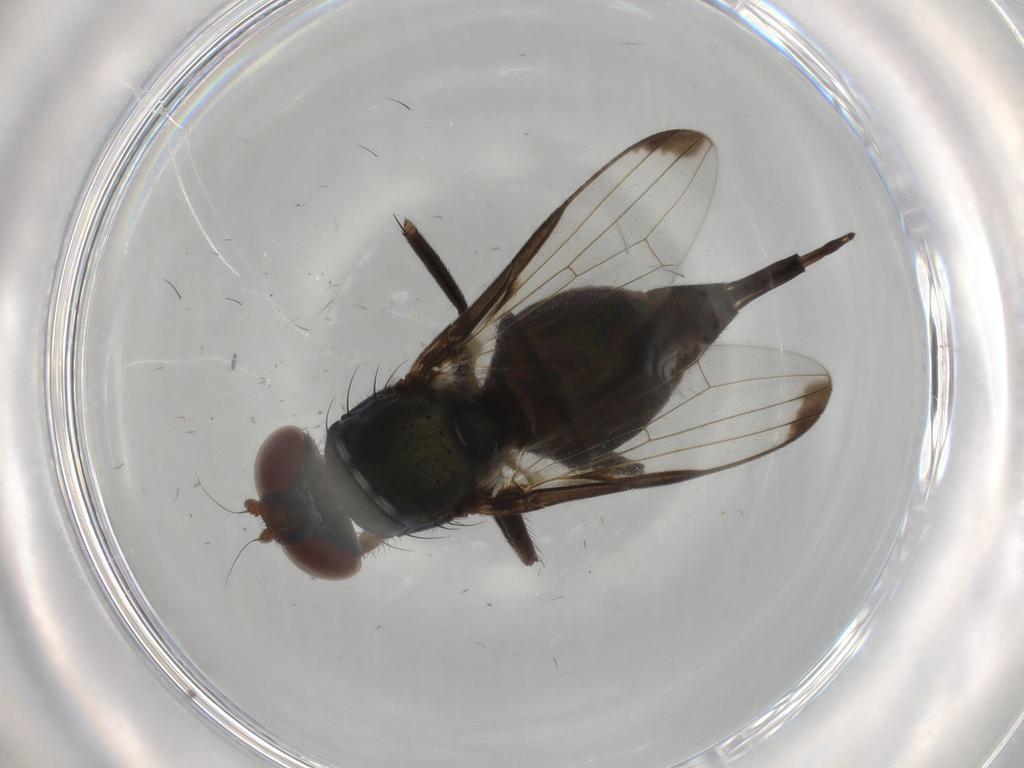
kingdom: Animalia
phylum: Arthropoda
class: Insecta
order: Diptera
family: Ulidiidae
